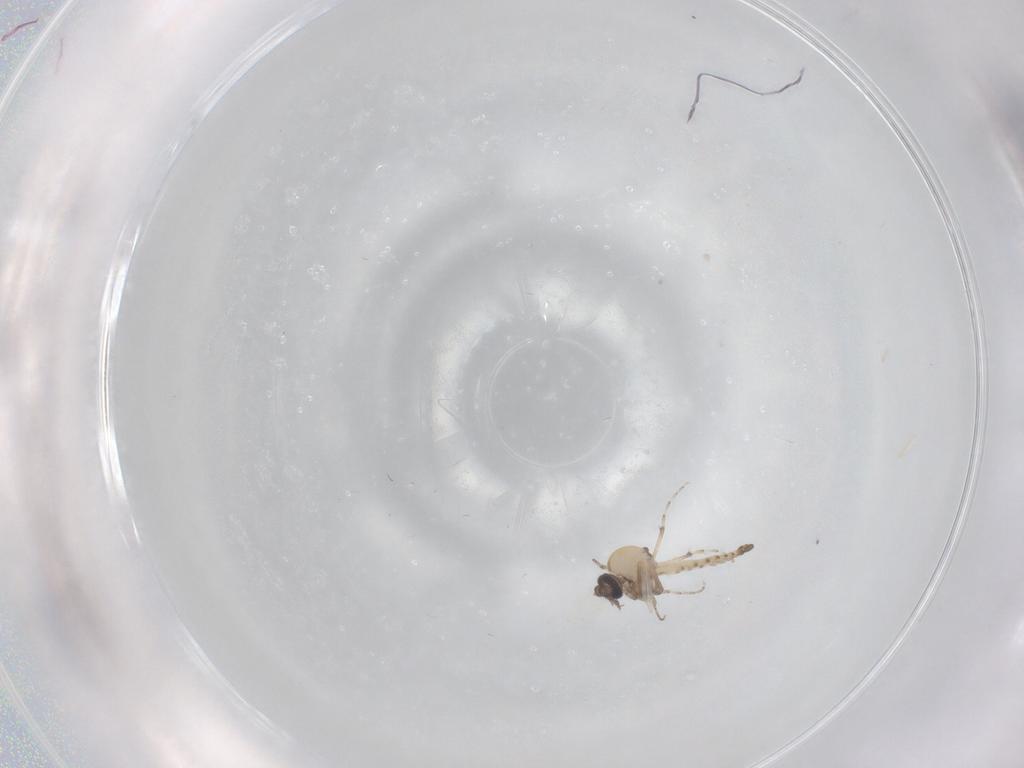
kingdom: Animalia
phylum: Arthropoda
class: Insecta
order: Diptera
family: Ceratopogonidae
